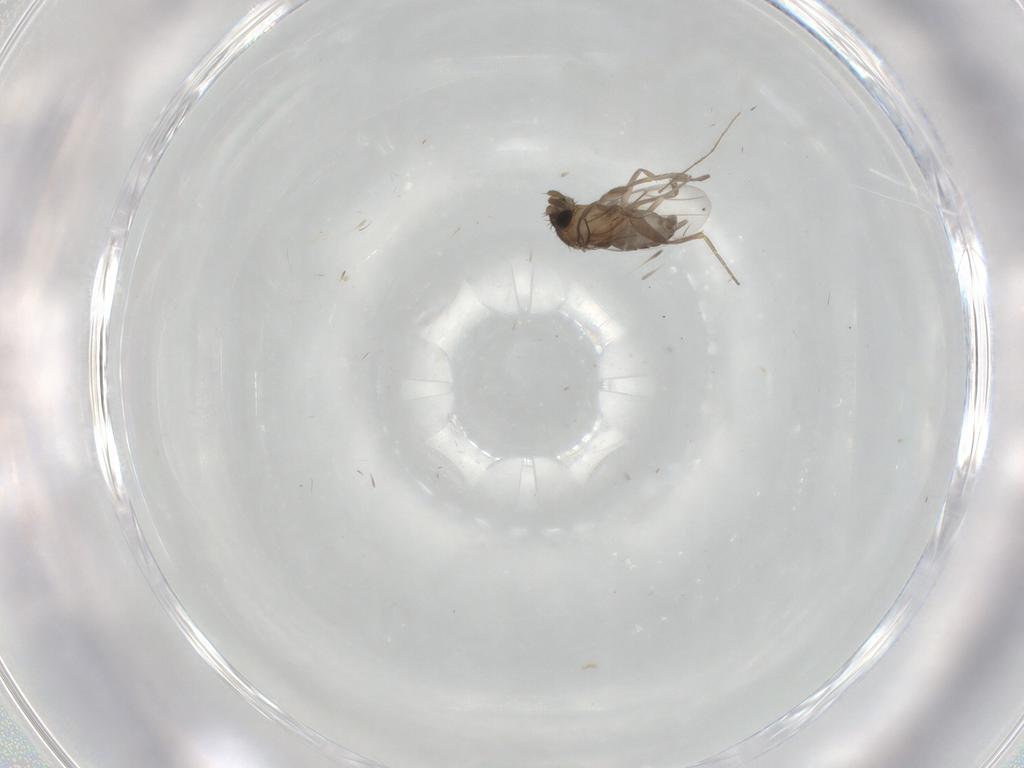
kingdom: Animalia
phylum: Arthropoda
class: Insecta
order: Diptera
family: Phoridae
